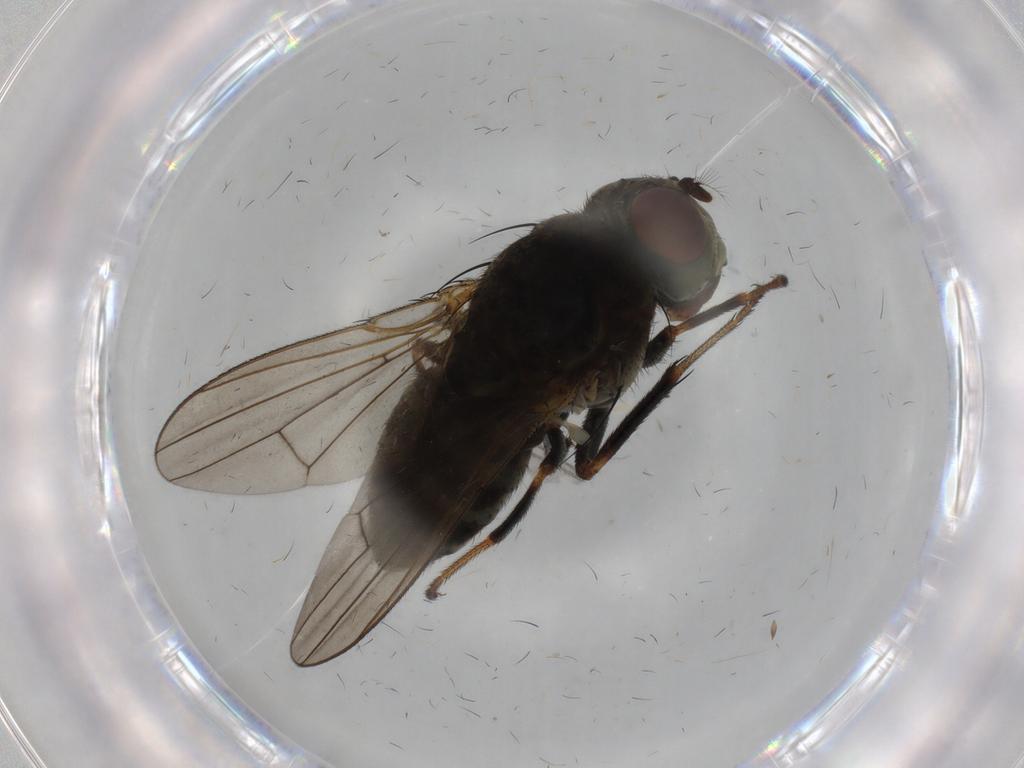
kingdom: Animalia
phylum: Arthropoda
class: Insecta
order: Diptera
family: Ephydridae
